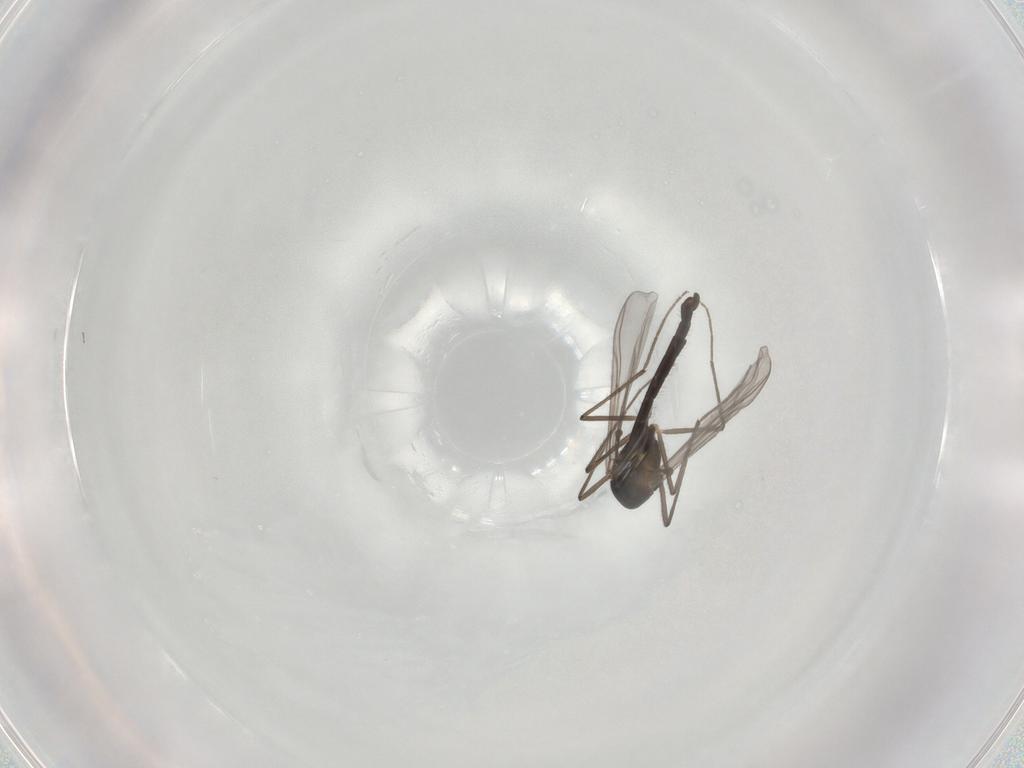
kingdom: Animalia
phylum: Arthropoda
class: Insecta
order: Diptera
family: Chironomidae
